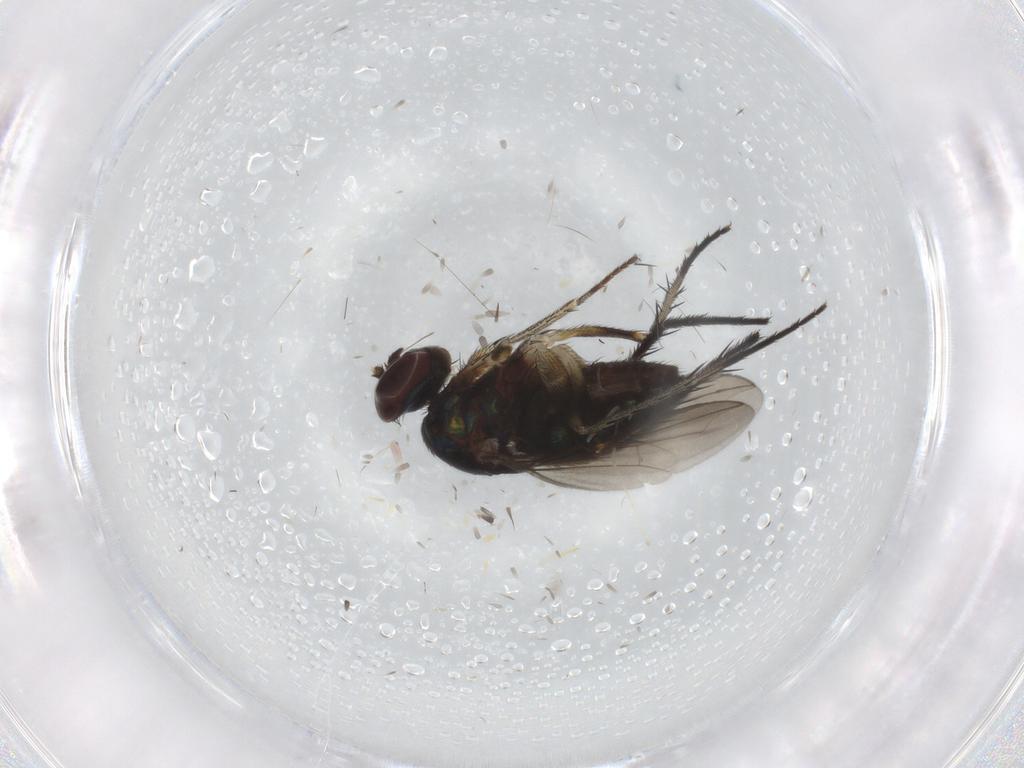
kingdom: Animalia
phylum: Arthropoda
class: Insecta
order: Diptera
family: Dolichopodidae
